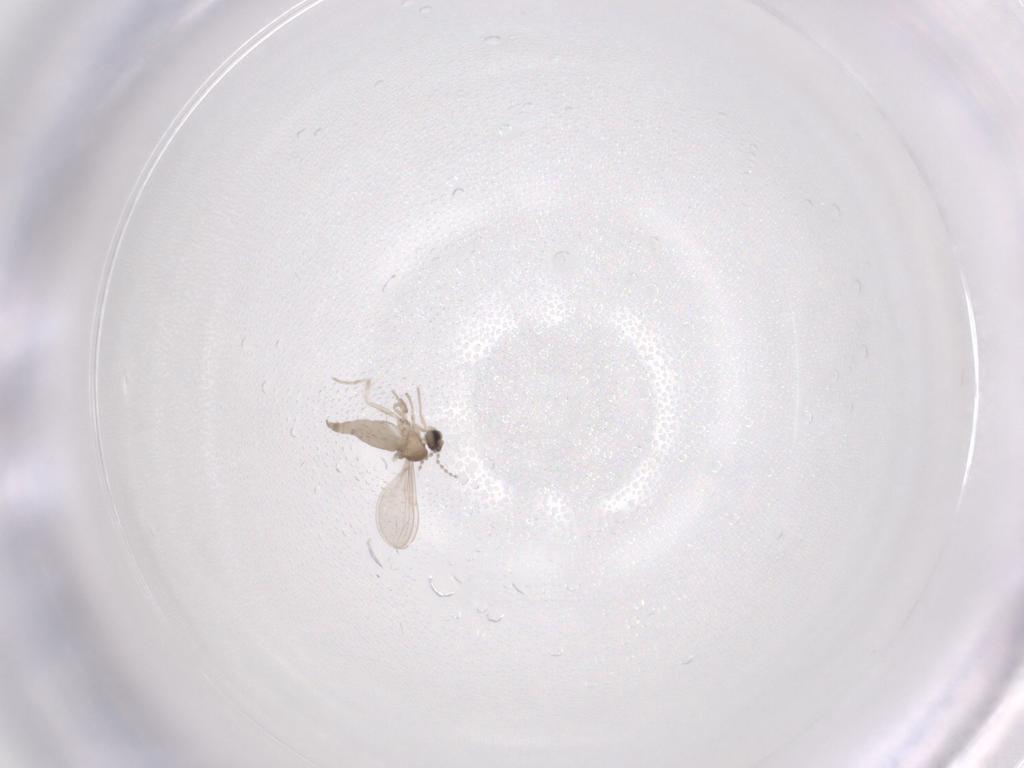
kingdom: Animalia
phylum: Arthropoda
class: Insecta
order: Diptera
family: Cecidomyiidae
